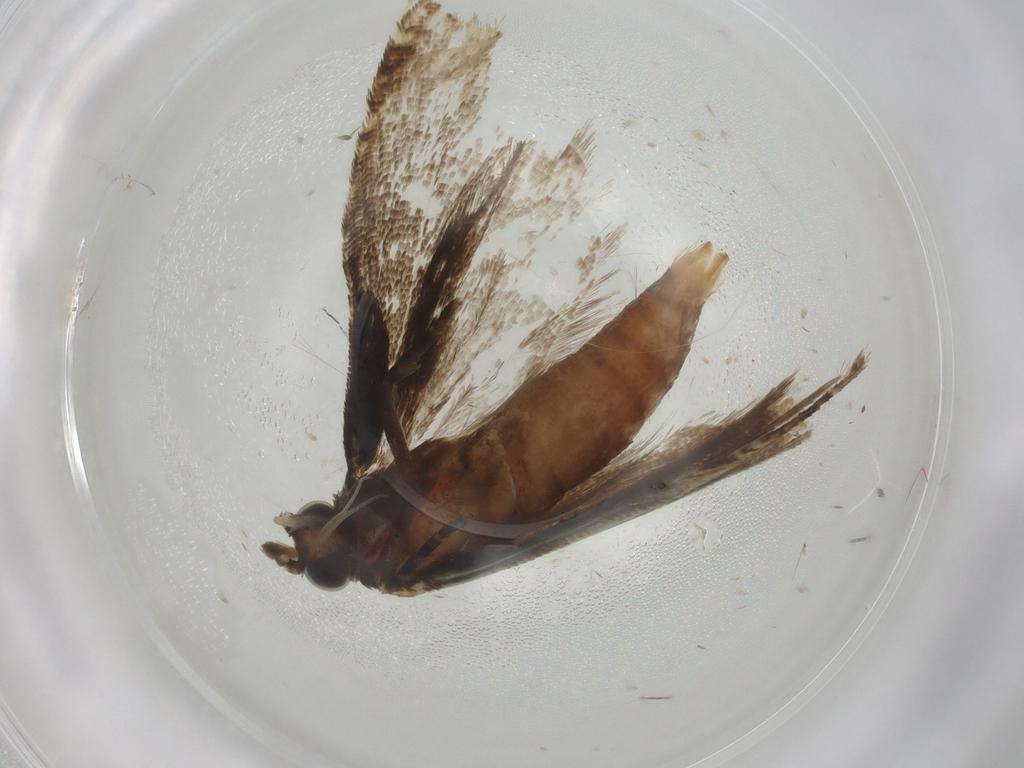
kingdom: Animalia
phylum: Arthropoda
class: Insecta
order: Lepidoptera
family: Tortricidae
